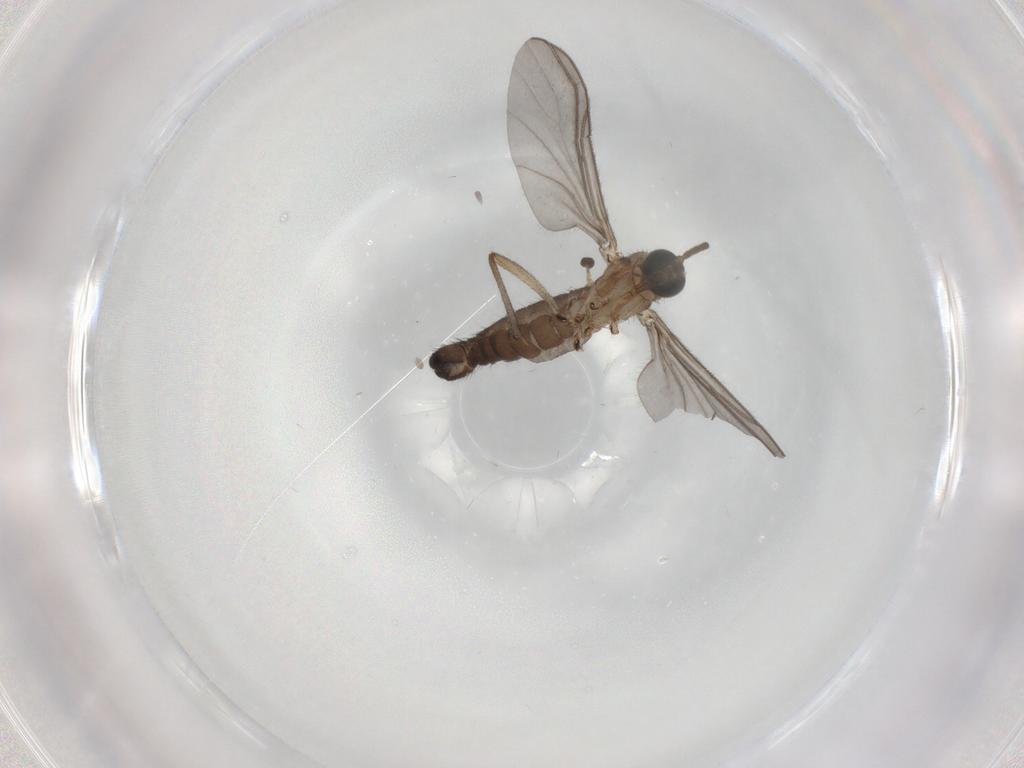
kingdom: Animalia
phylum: Arthropoda
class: Insecta
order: Diptera
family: Cecidomyiidae
